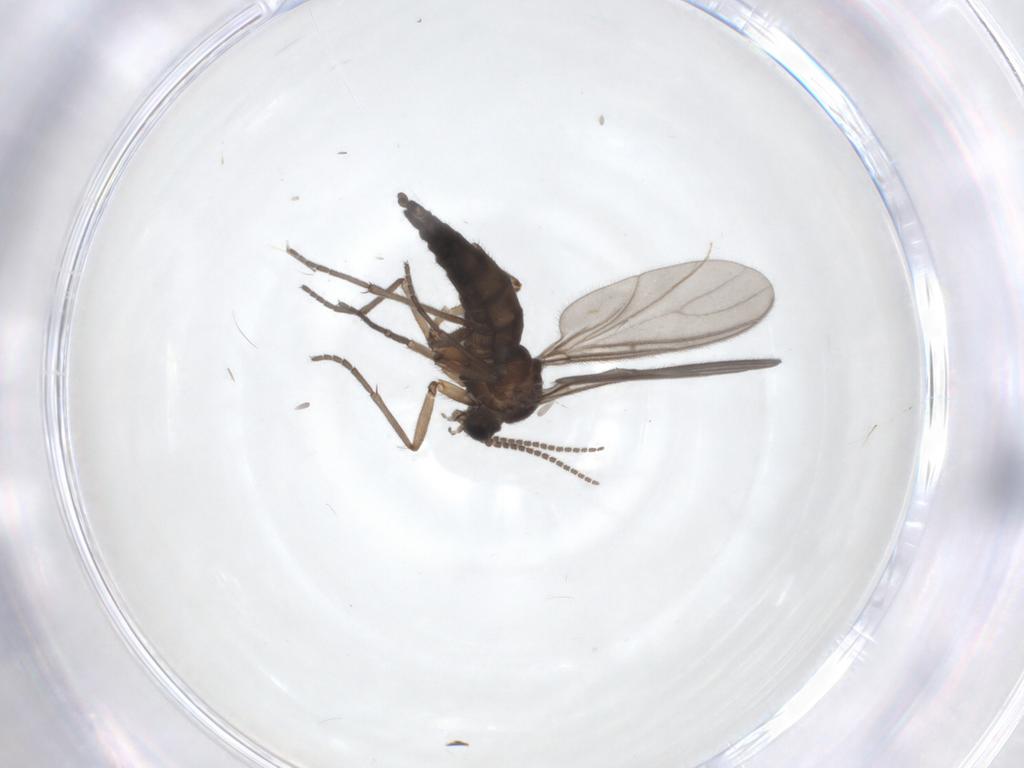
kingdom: Animalia
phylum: Arthropoda
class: Insecta
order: Diptera
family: Sciaridae
